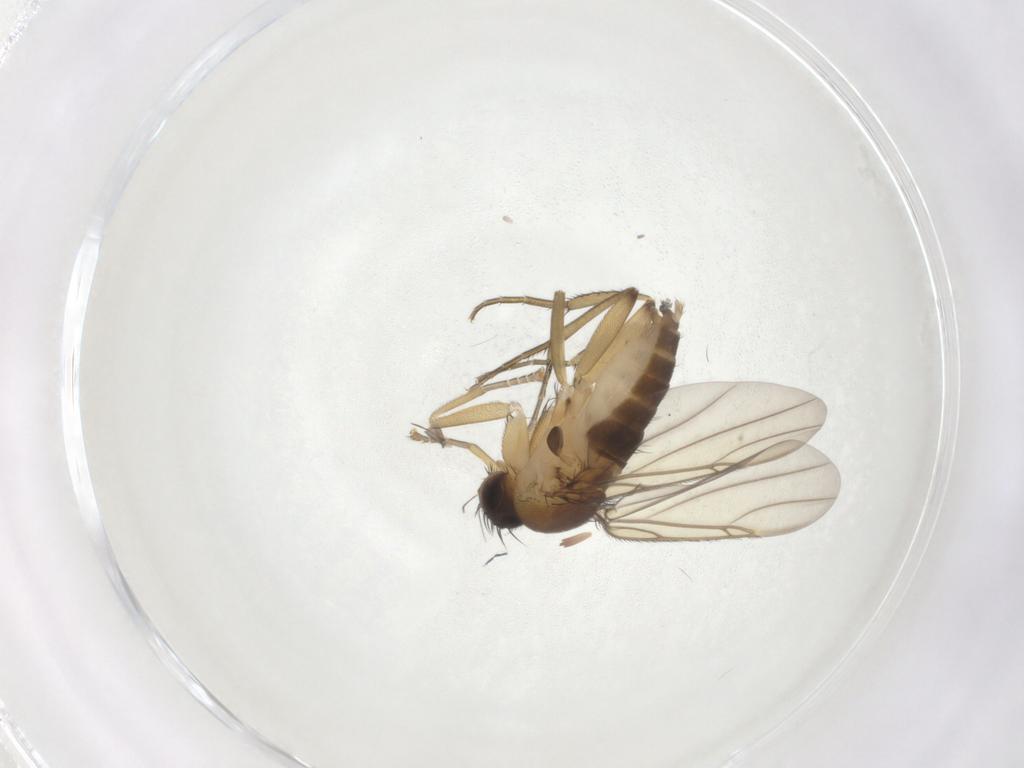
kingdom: Animalia
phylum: Arthropoda
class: Insecta
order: Diptera
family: Phoridae
